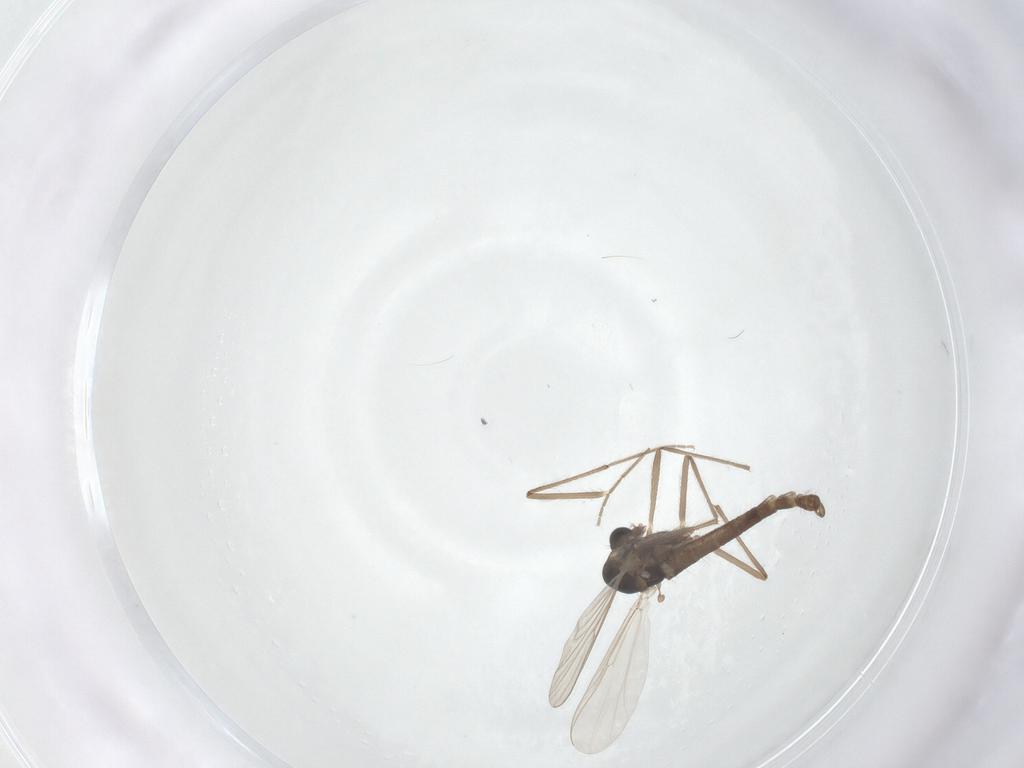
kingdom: Animalia
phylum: Arthropoda
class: Insecta
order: Diptera
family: Chironomidae
